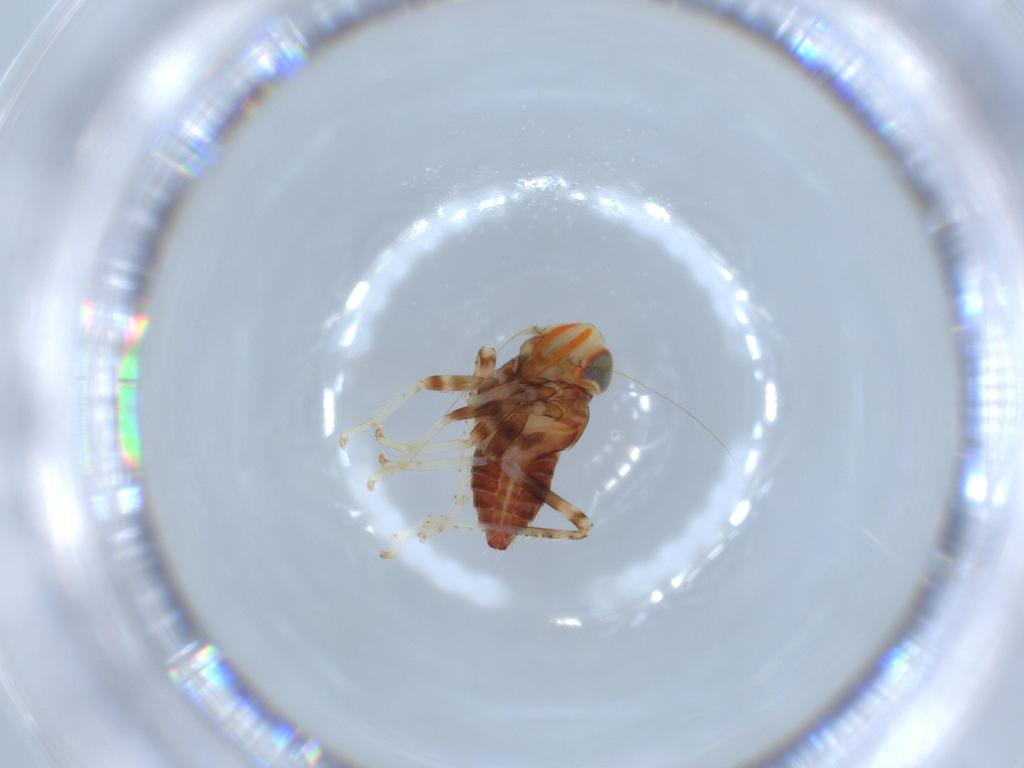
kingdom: Animalia
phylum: Arthropoda
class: Insecta
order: Hemiptera
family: Cicadellidae
